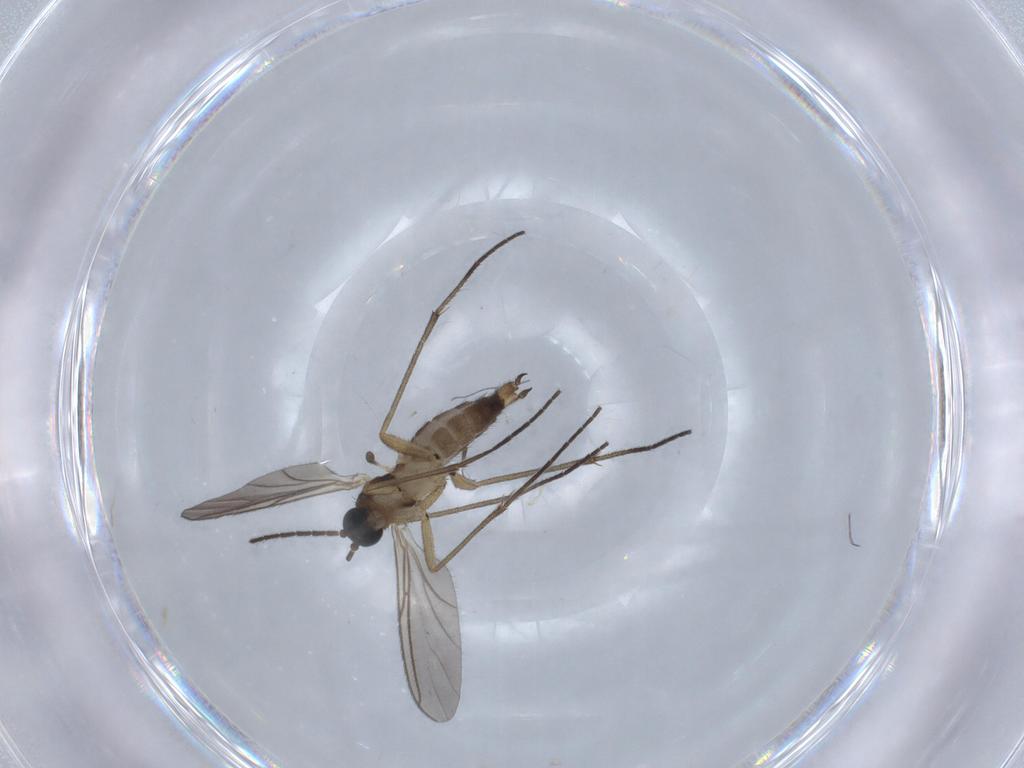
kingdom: Animalia
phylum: Arthropoda
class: Insecta
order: Diptera
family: Sciaridae
